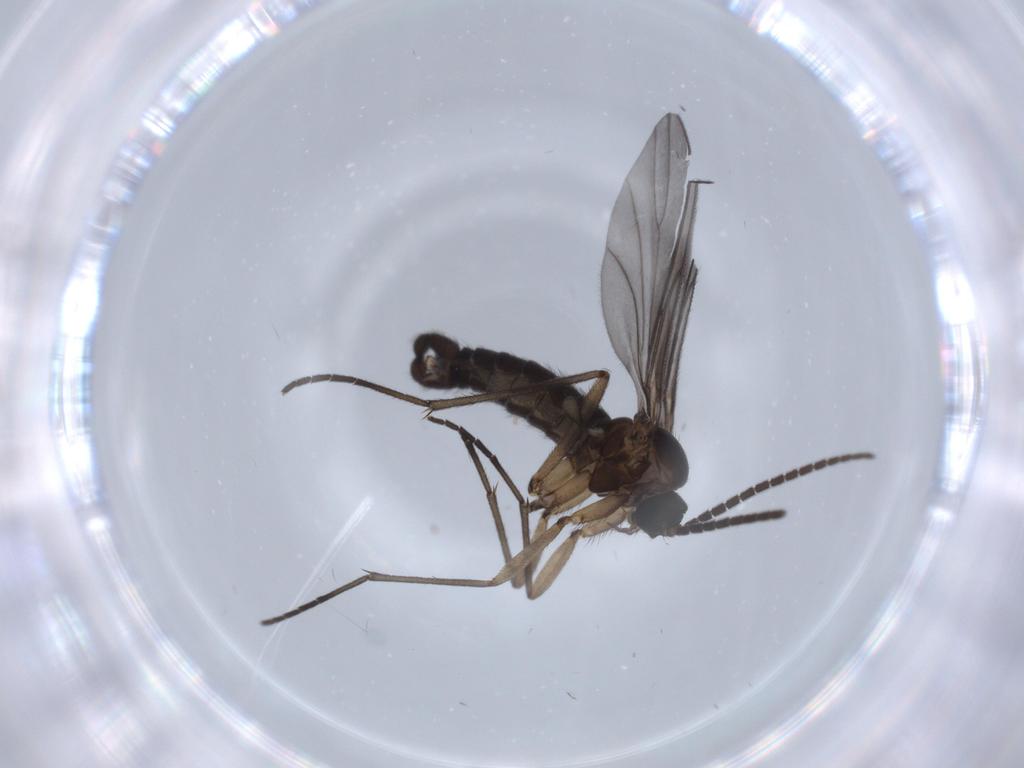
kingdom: Animalia
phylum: Arthropoda
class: Insecta
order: Diptera
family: Sciaridae
